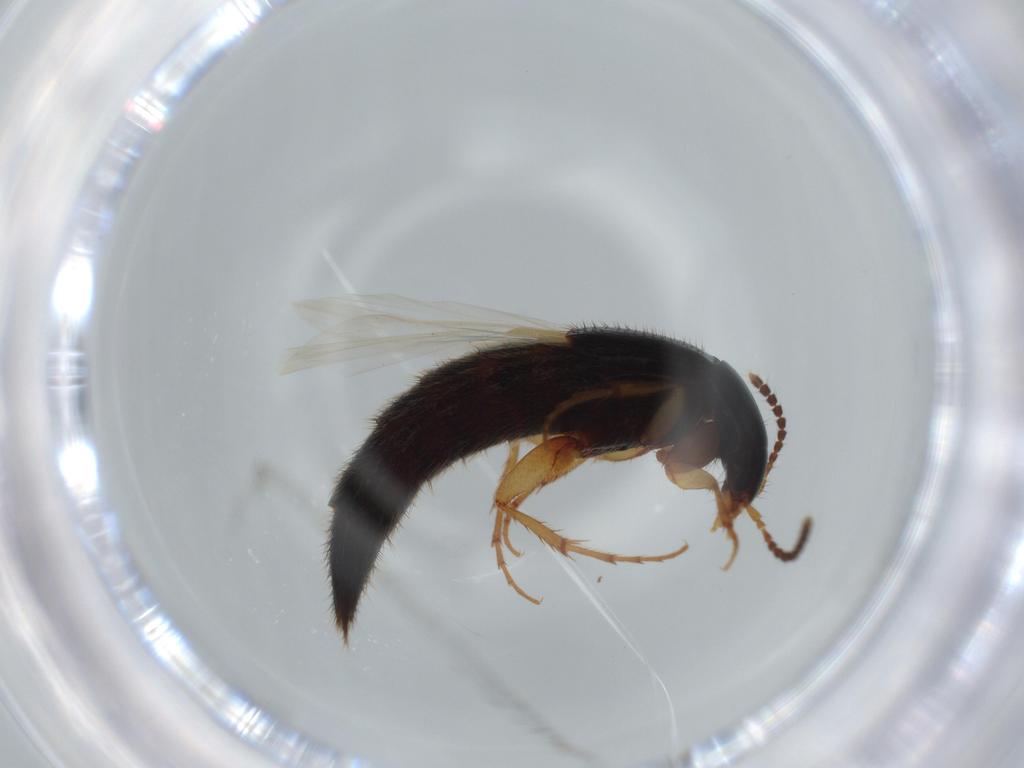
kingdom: Animalia
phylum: Arthropoda
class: Insecta
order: Coleoptera
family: Staphylinidae
